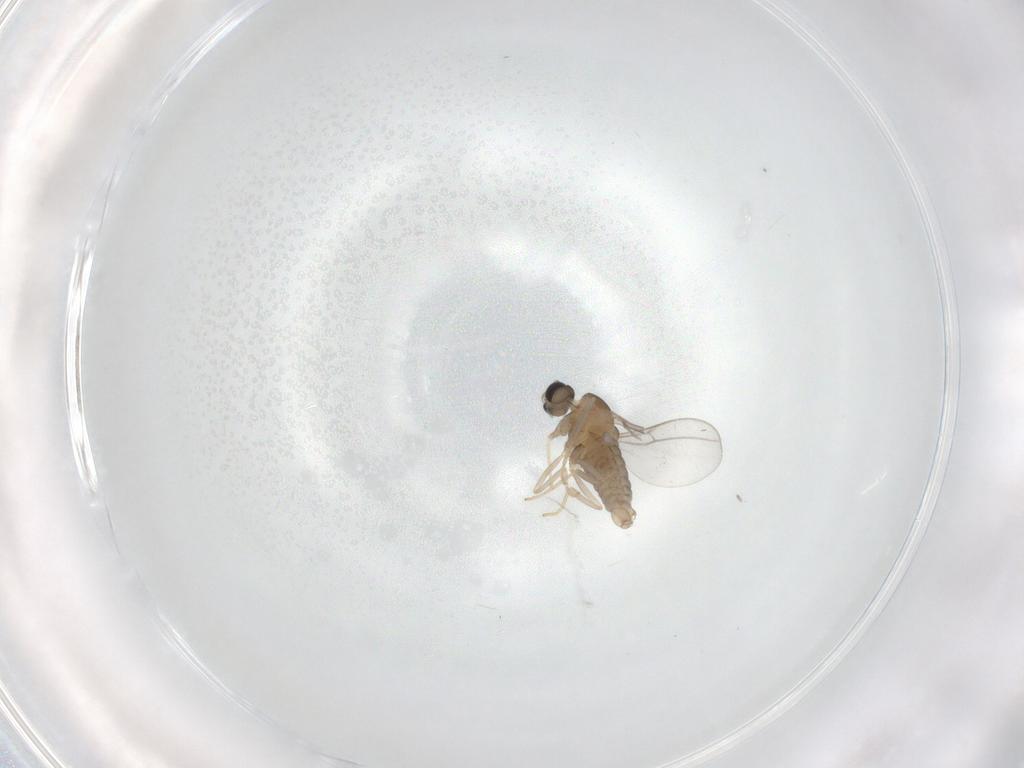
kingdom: Animalia
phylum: Arthropoda
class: Insecta
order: Diptera
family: Cecidomyiidae
